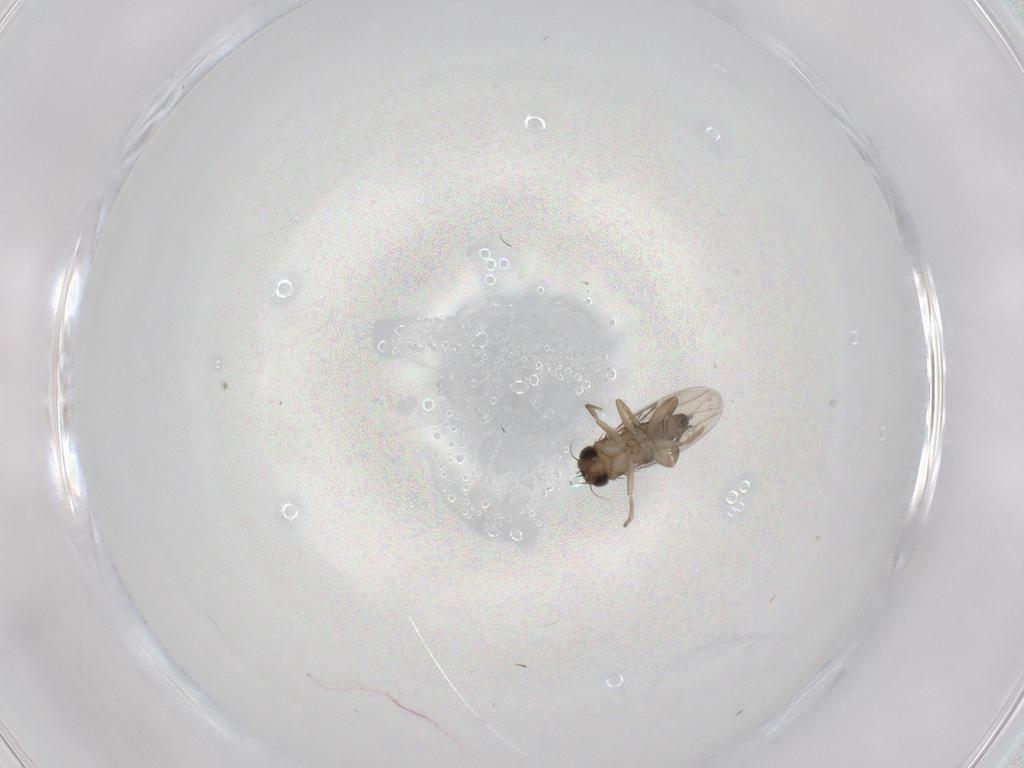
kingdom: Animalia
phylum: Arthropoda
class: Insecta
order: Diptera
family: Phoridae
